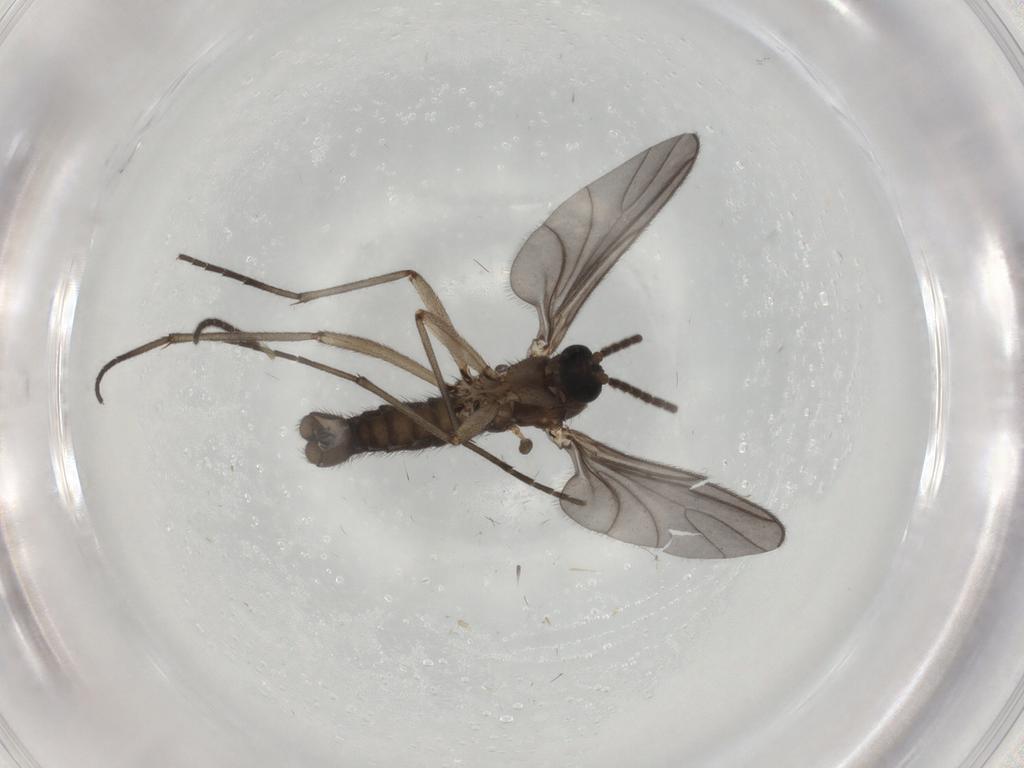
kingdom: Animalia
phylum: Arthropoda
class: Insecta
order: Diptera
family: Sciaridae
